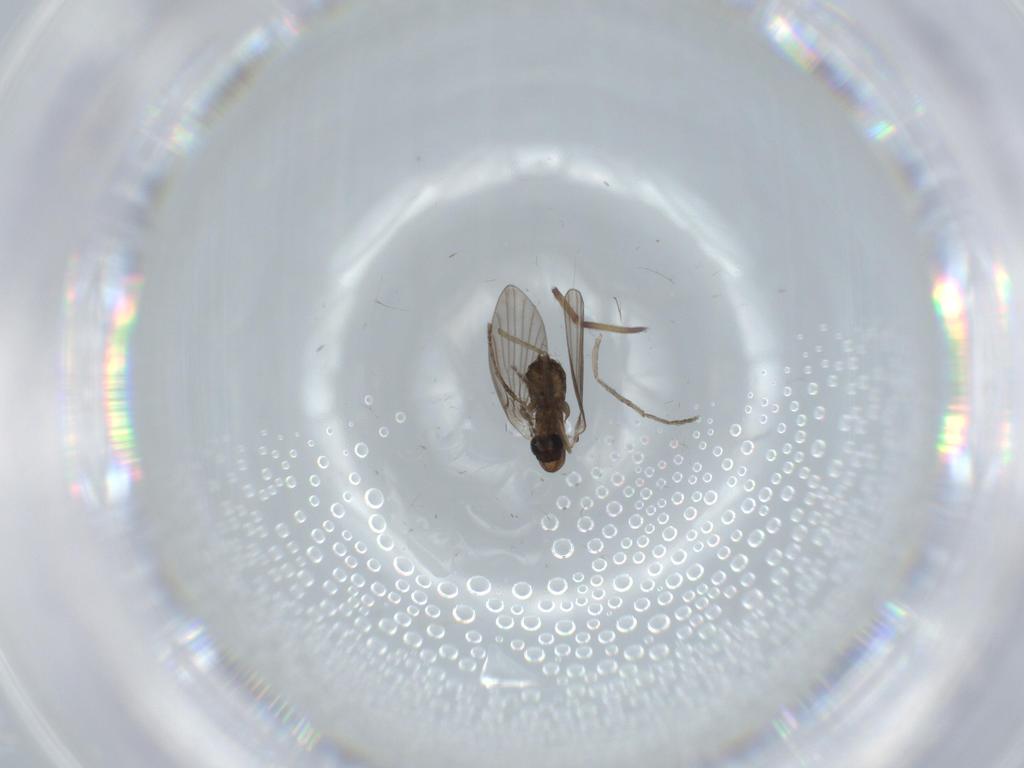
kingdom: Animalia
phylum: Arthropoda
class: Insecta
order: Diptera
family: Psychodidae
